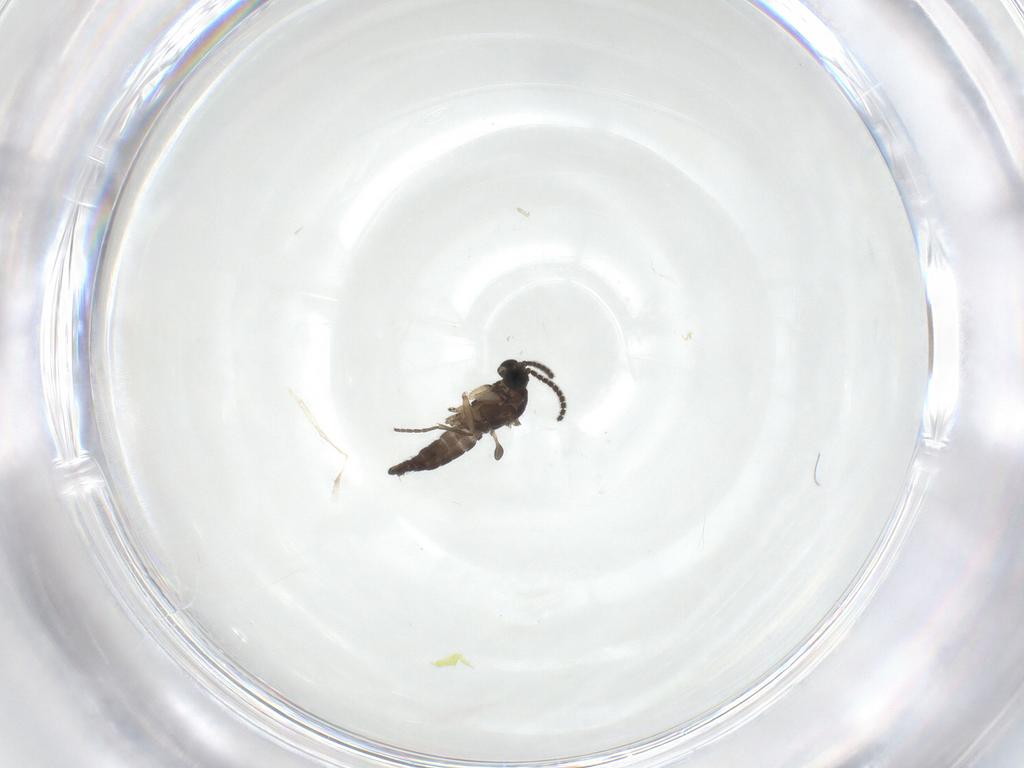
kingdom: Animalia
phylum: Arthropoda
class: Insecta
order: Diptera
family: Sciaridae
